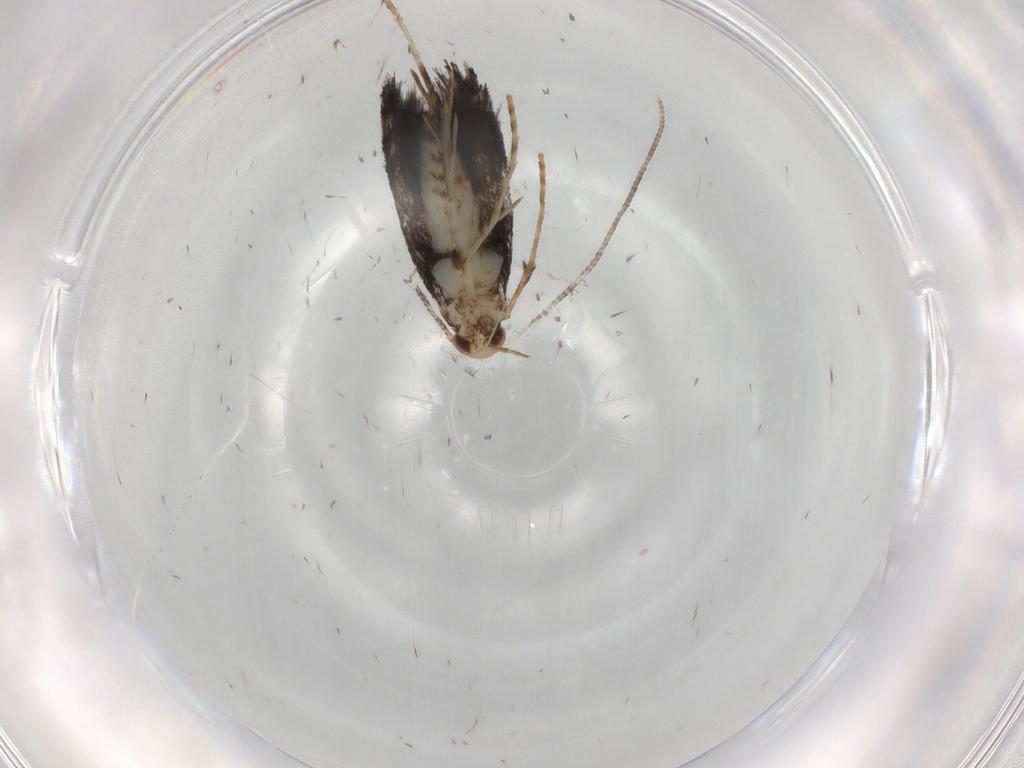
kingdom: Animalia
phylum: Arthropoda
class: Insecta
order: Lepidoptera
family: Gracillariidae
